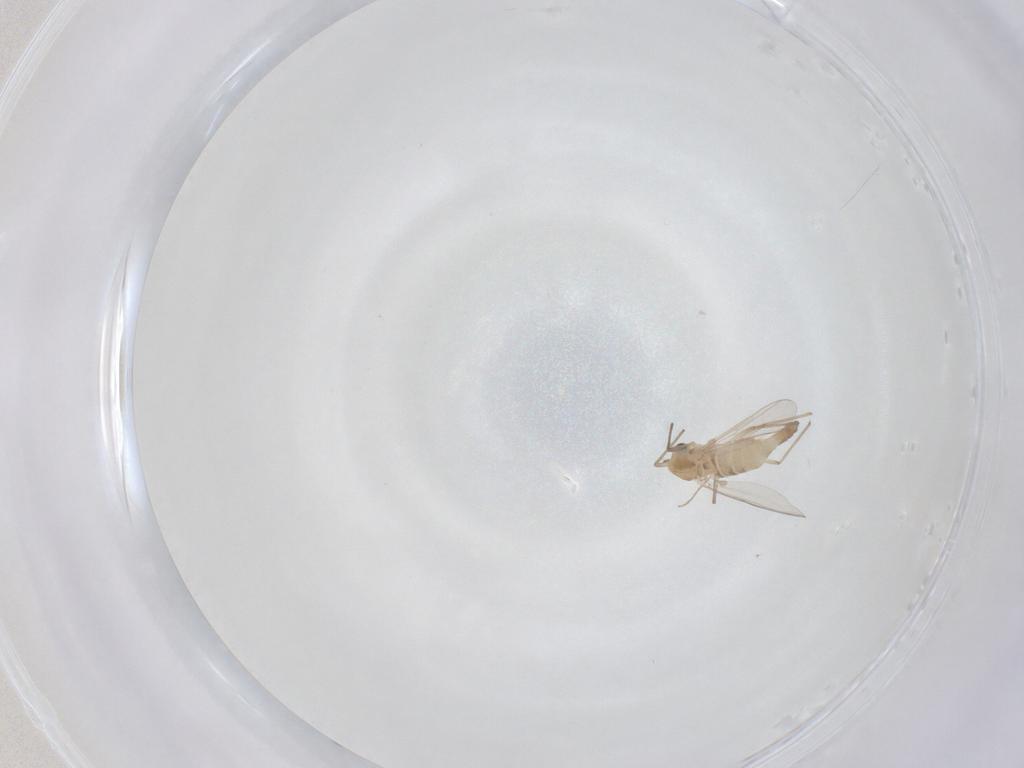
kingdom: Animalia
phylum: Arthropoda
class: Insecta
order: Diptera
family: Chironomidae
